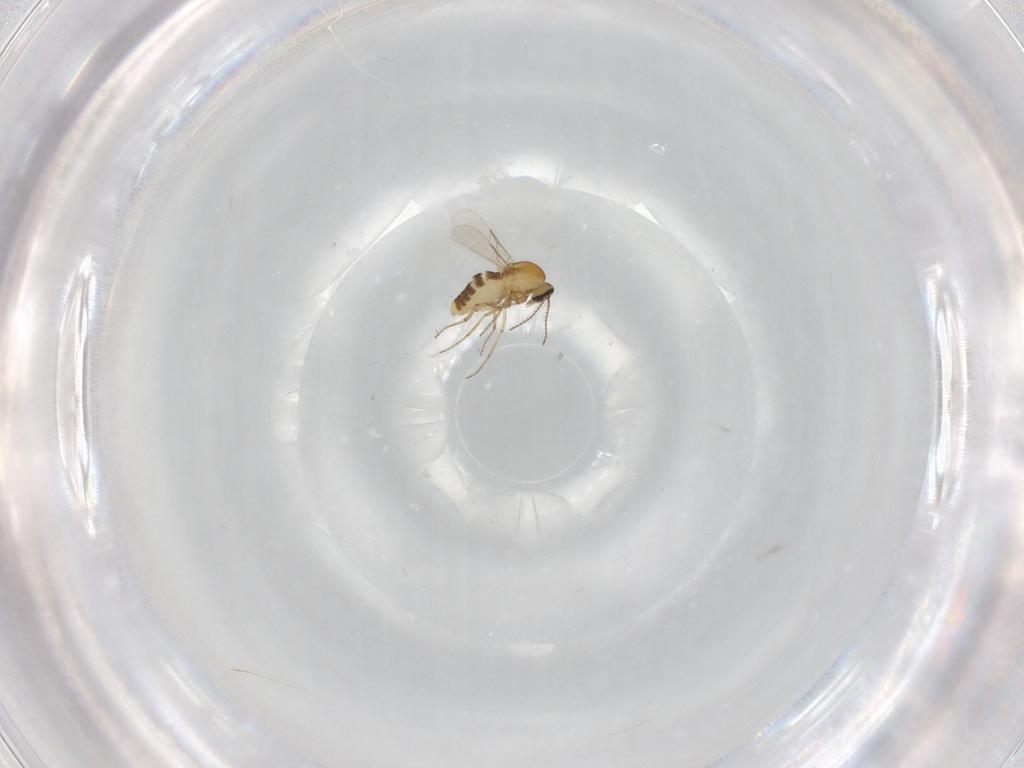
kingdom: Animalia
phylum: Arthropoda
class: Insecta
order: Diptera
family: Ceratopogonidae
